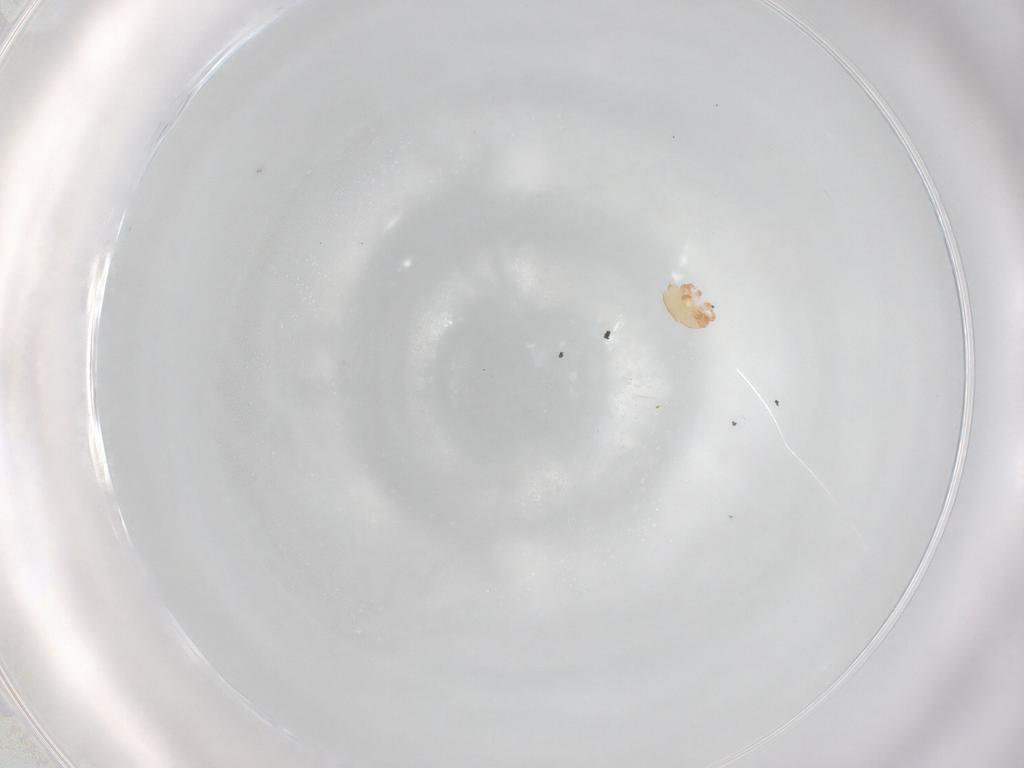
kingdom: Animalia
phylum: Arthropoda
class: Arachnida
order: Trombidiformes
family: Stigmaeidae
